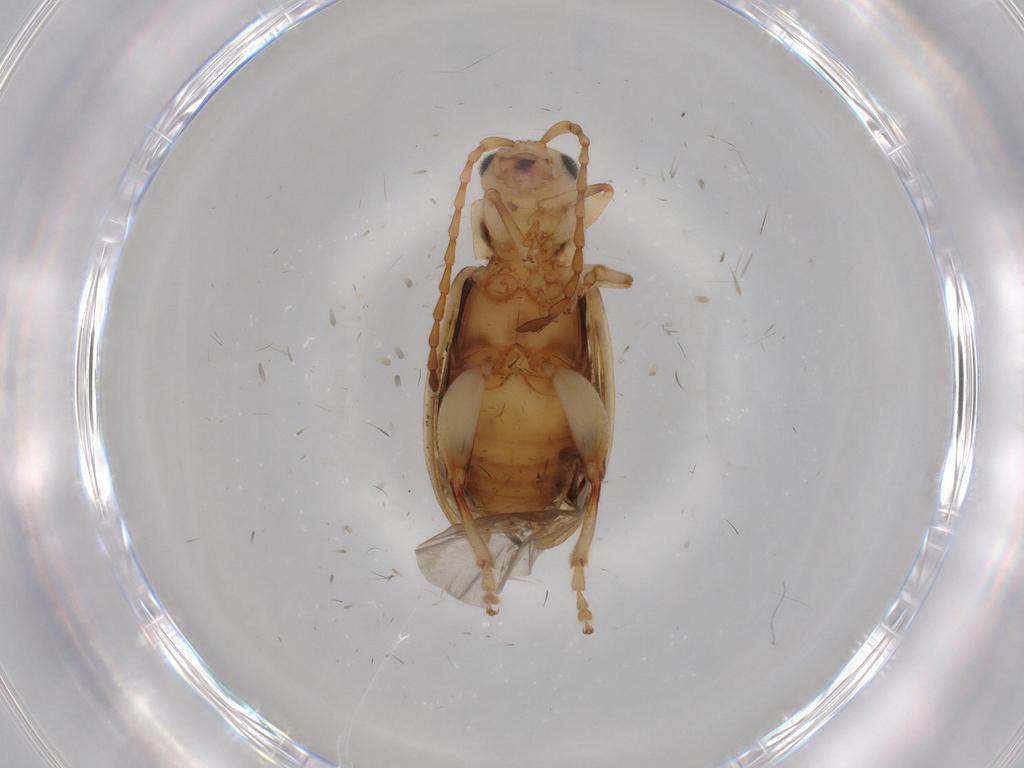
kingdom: Animalia
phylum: Arthropoda
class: Insecta
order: Coleoptera
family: Chrysomelidae
